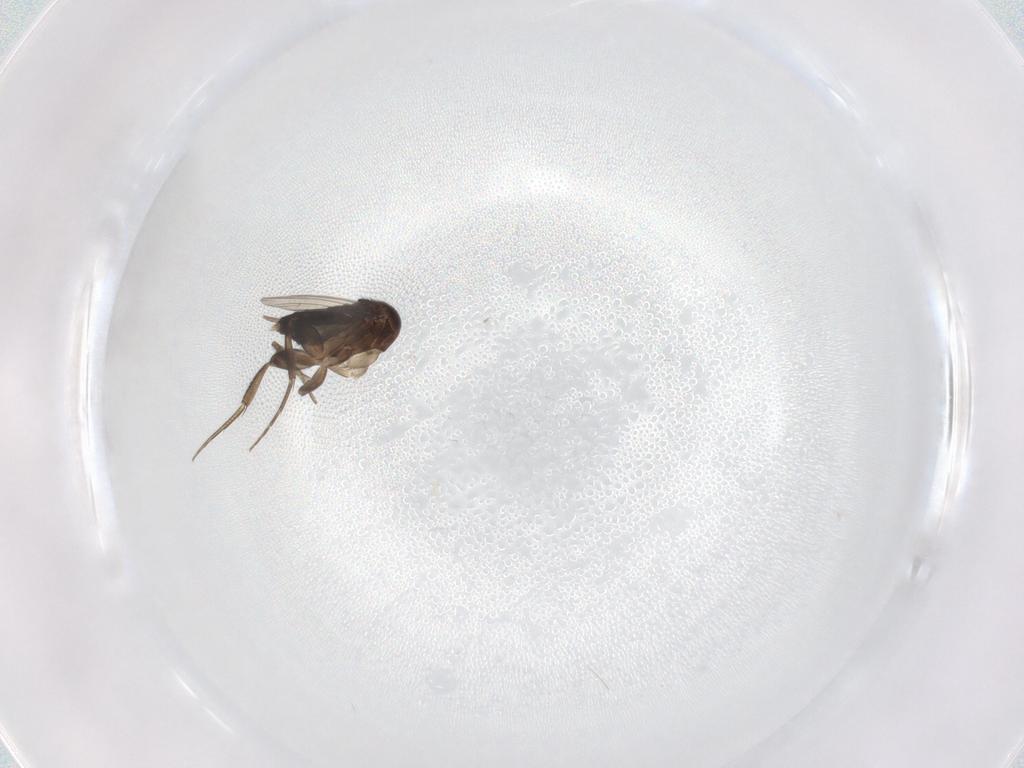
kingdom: Animalia
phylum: Arthropoda
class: Insecta
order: Diptera
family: Phoridae
